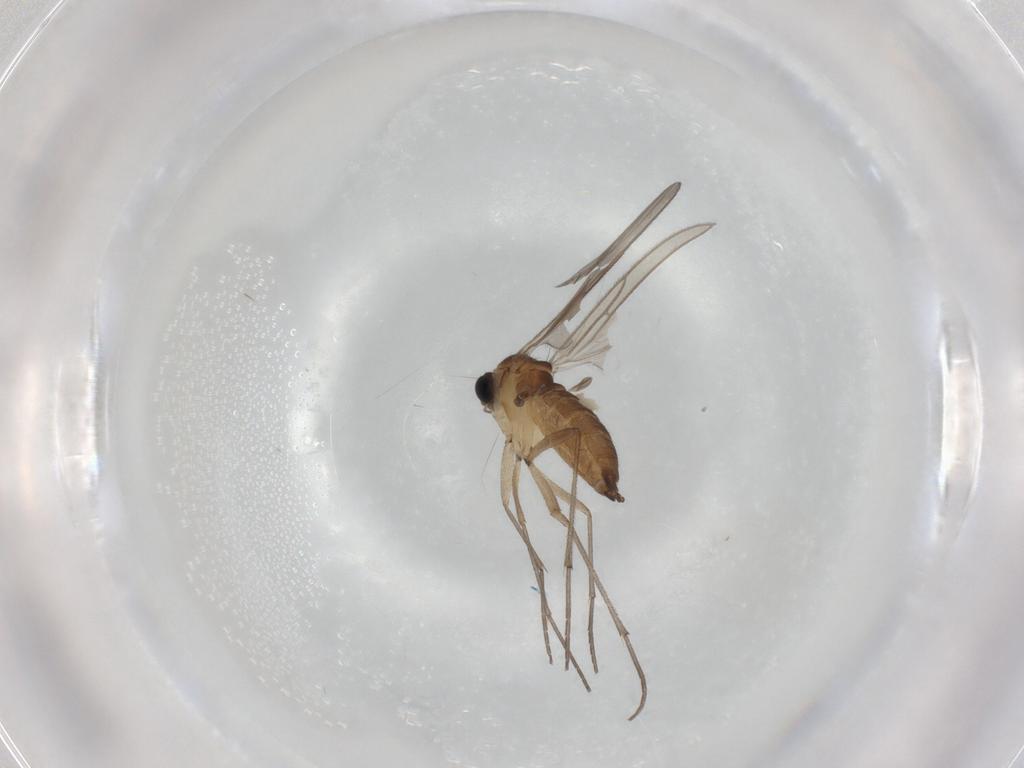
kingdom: Animalia
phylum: Arthropoda
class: Insecta
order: Diptera
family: Sciaridae
